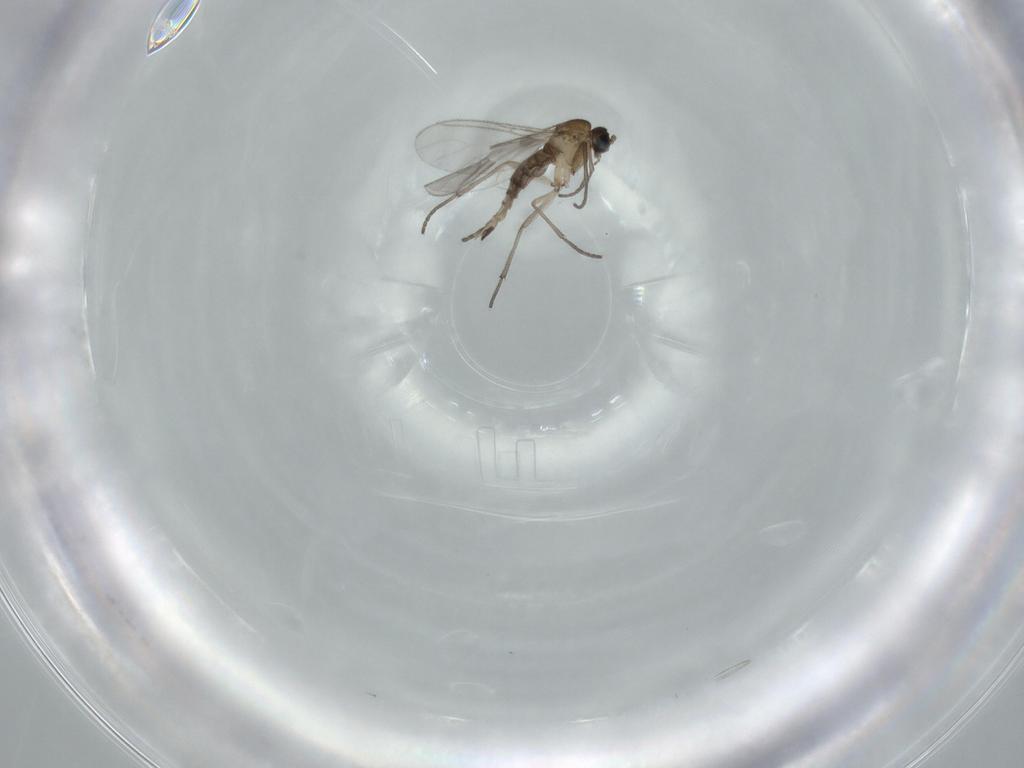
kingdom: Animalia
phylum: Arthropoda
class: Insecta
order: Diptera
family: Sciaridae
